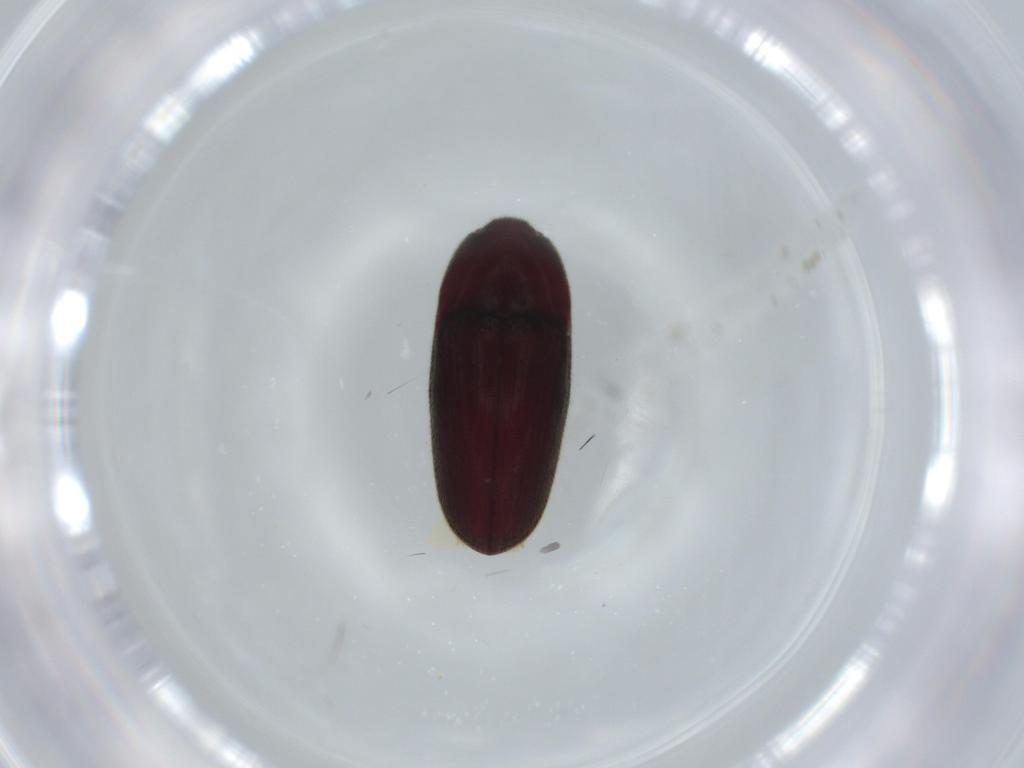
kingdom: Animalia
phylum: Arthropoda
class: Insecta
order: Coleoptera
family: Throscidae
